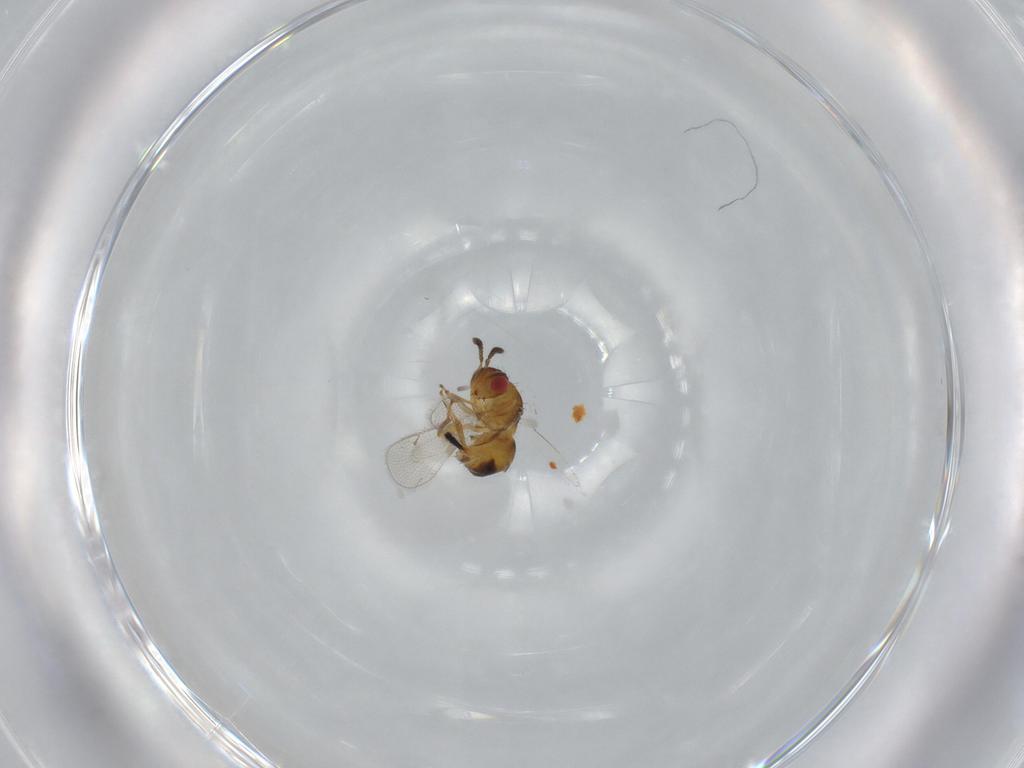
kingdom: Animalia
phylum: Arthropoda
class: Insecta
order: Hymenoptera
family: Torymidae
